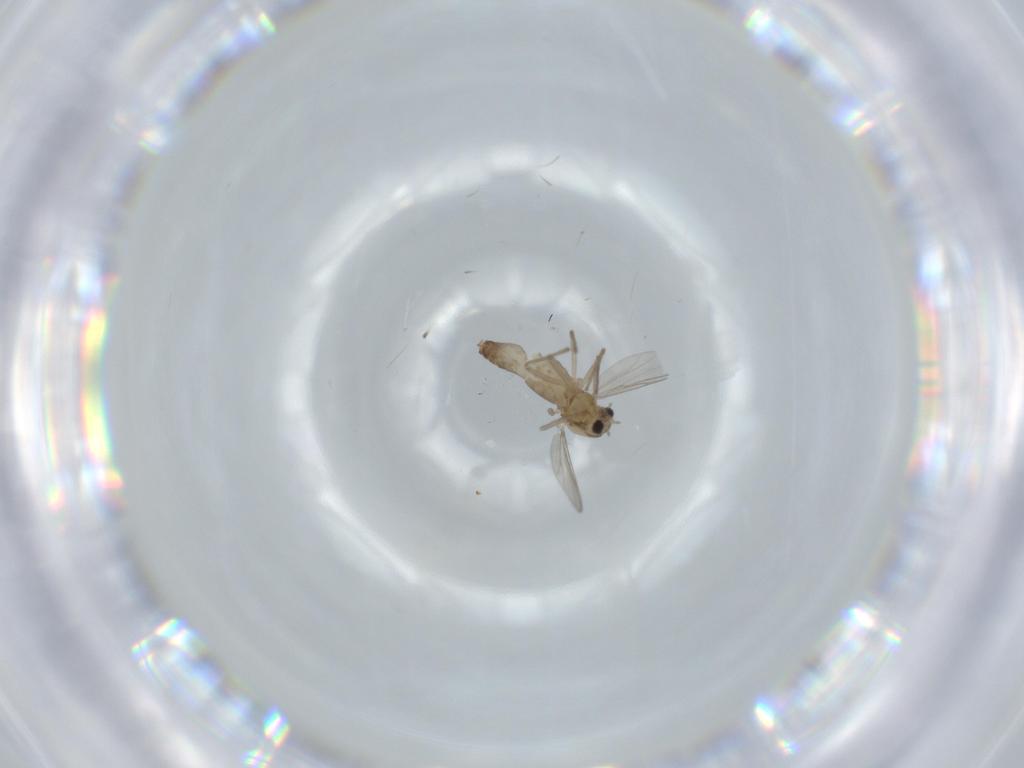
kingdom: Animalia
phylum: Arthropoda
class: Insecta
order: Diptera
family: Chironomidae
